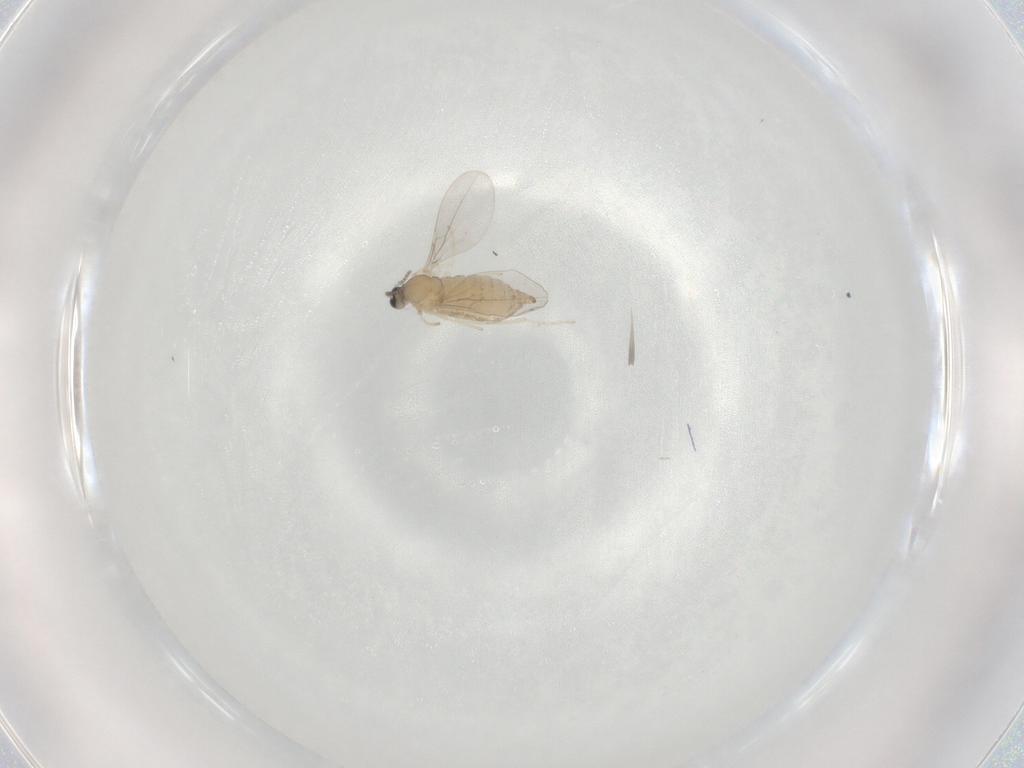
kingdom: Animalia
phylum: Arthropoda
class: Insecta
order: Diptera
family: Cecidomyiidae
